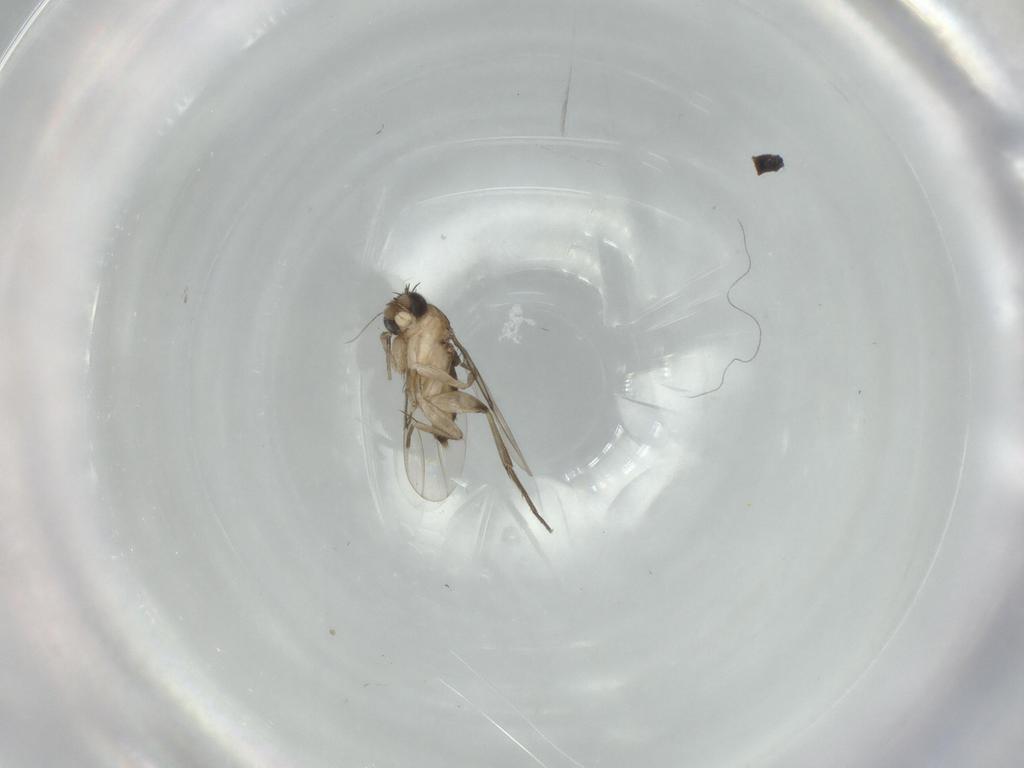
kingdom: Animalia
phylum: Arthropoda
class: Insecta
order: Diptera
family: Phoridae
